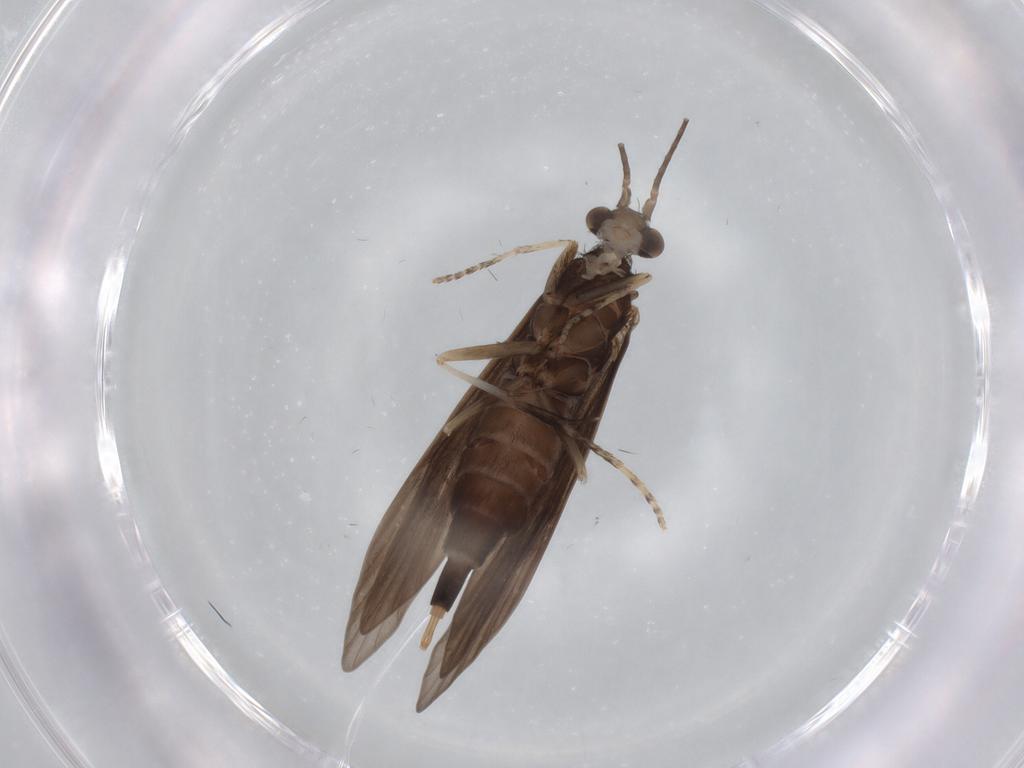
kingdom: Animalia
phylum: Arthropoda
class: Insecta
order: Trichoptera
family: Xiphocentronidae
